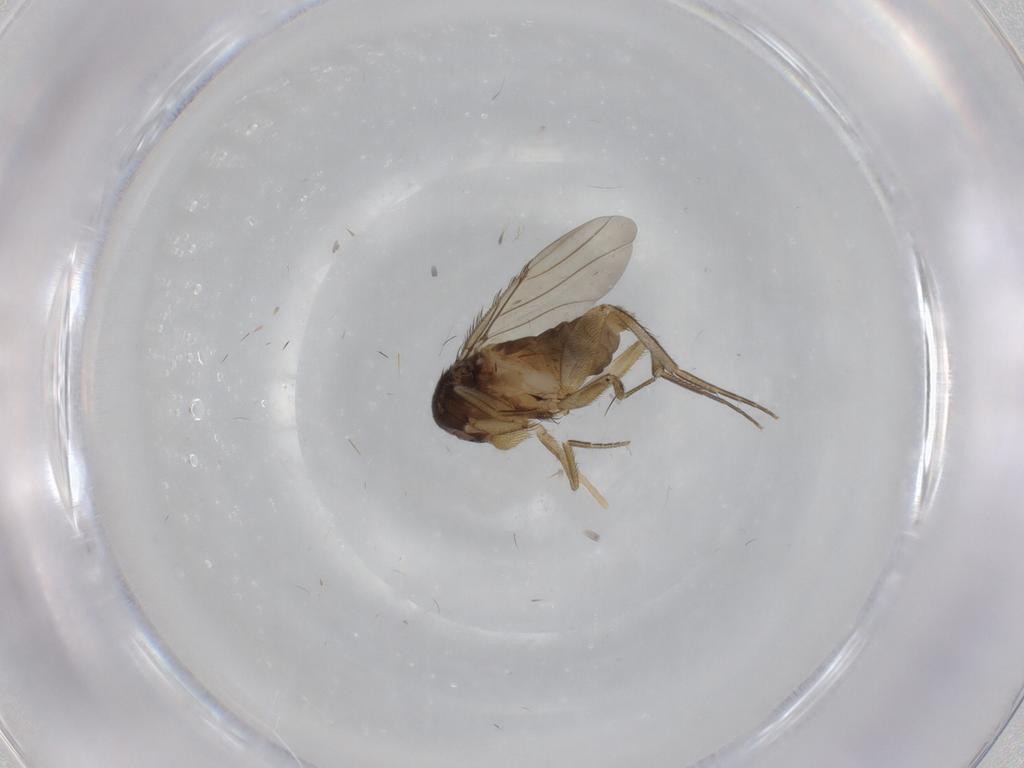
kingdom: Animalia
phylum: Arthropoda
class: Insecta
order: Diptera
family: Phoridae
